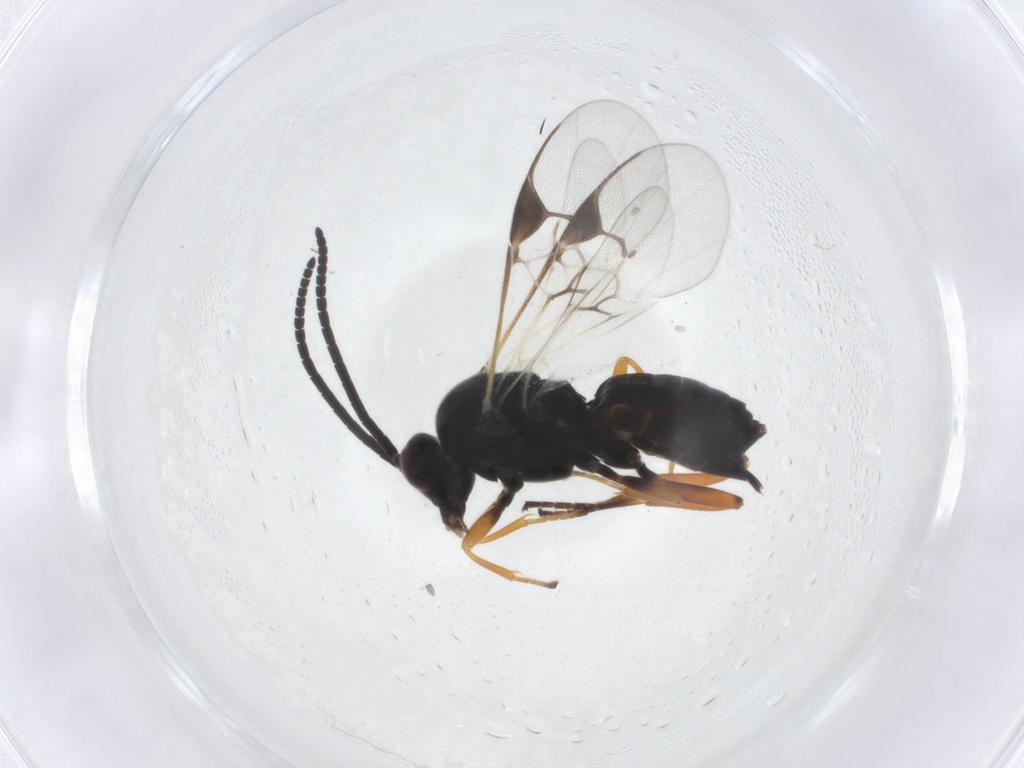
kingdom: Animalia
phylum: Arthropoda
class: Insecta
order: Hymenoptera
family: Braconidae
